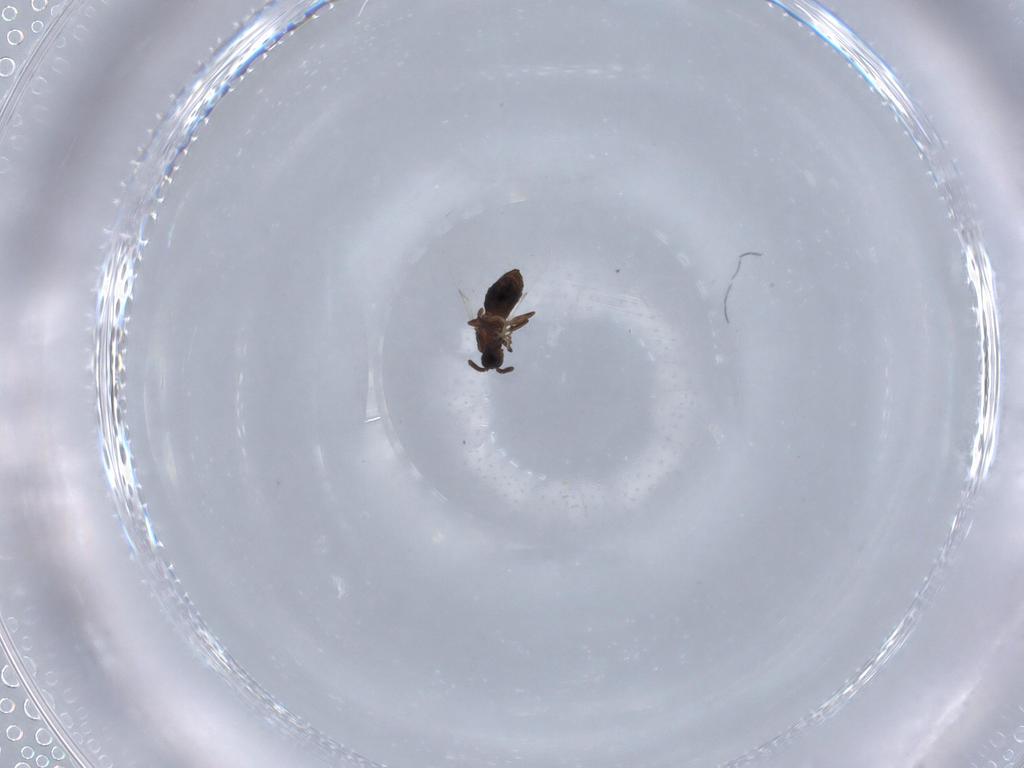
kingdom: Animalia
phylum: Arthropoda
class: Insecta
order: Diptera
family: Scatopsidae
